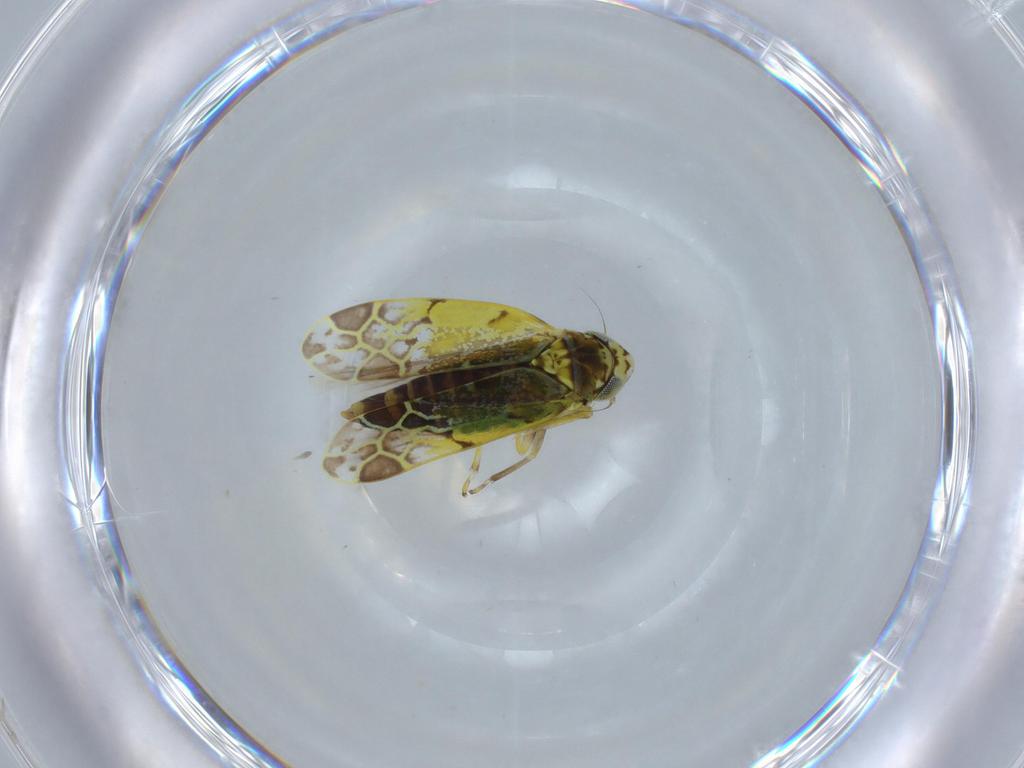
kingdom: Animalia
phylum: Arthropoda
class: Insecta
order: Hemiptera
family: Cicadellidae
